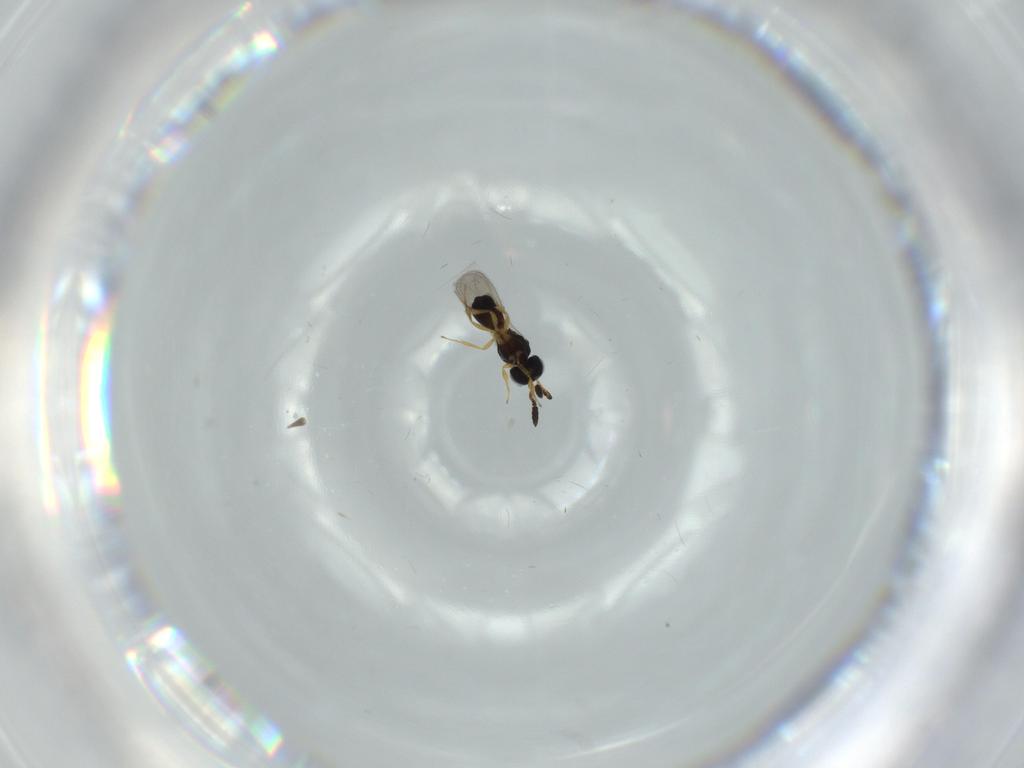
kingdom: Animalia
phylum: Arthropoda
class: Insecta
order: Hymenoptera
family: Scelionidae
